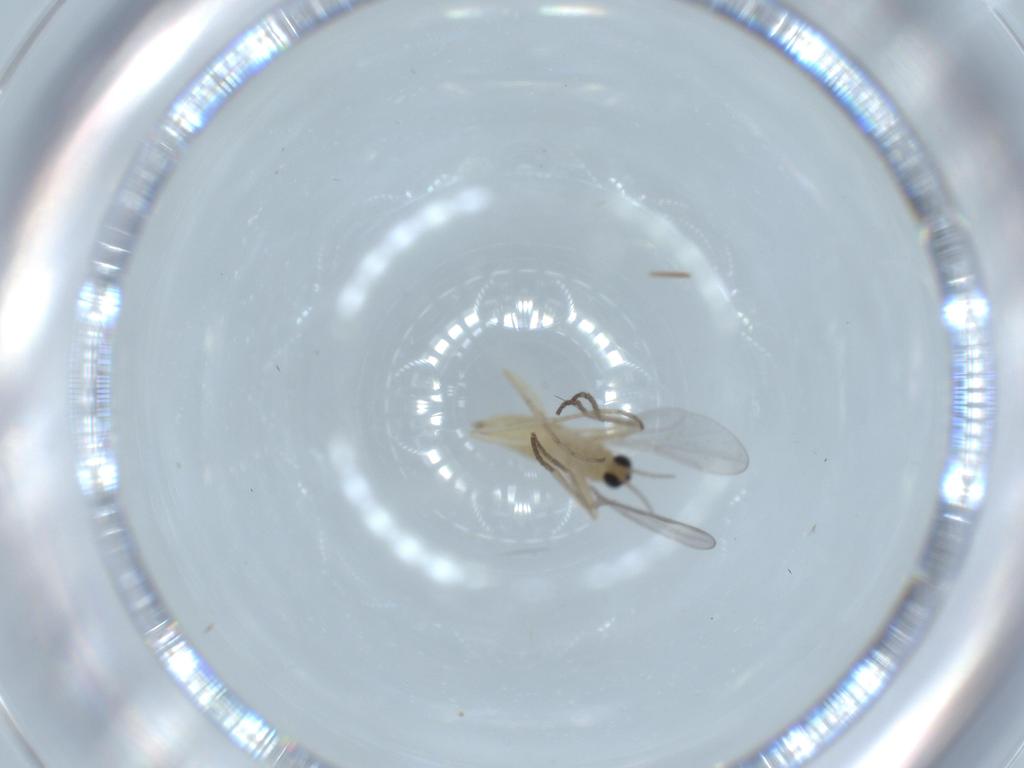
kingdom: Animalia
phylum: Arthropoda
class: Insecta
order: Diptera
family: Cecidomyiidae
